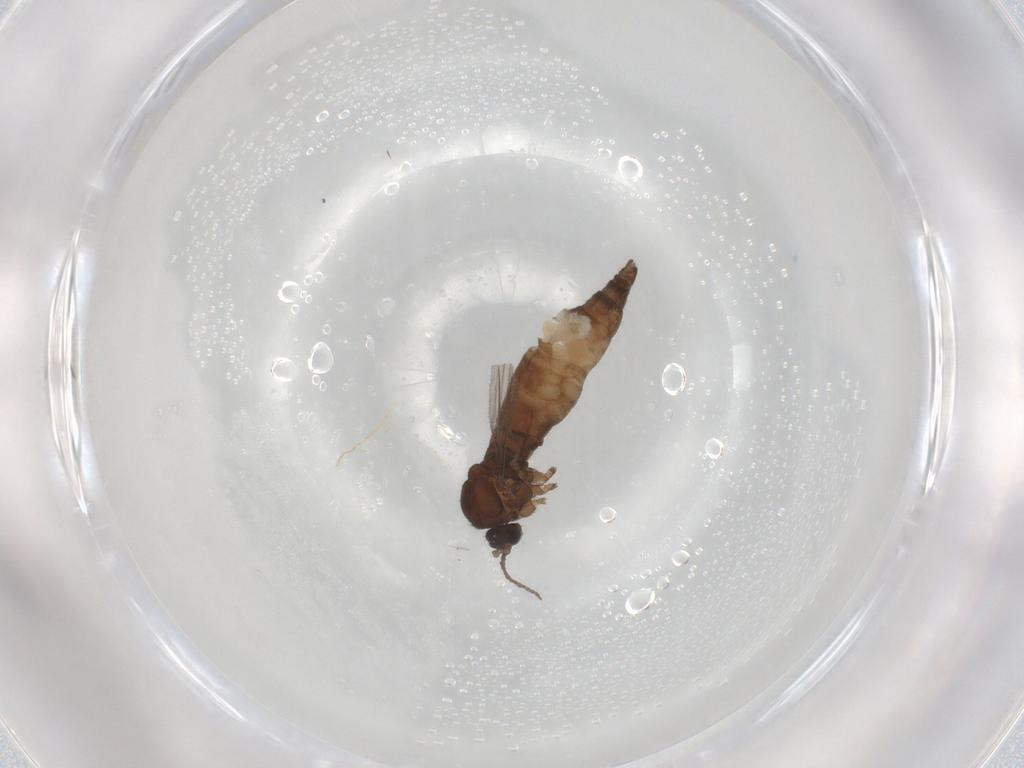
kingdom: Animalia
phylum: Arthropoda
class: Insecta
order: Diptera
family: Sciaridae
